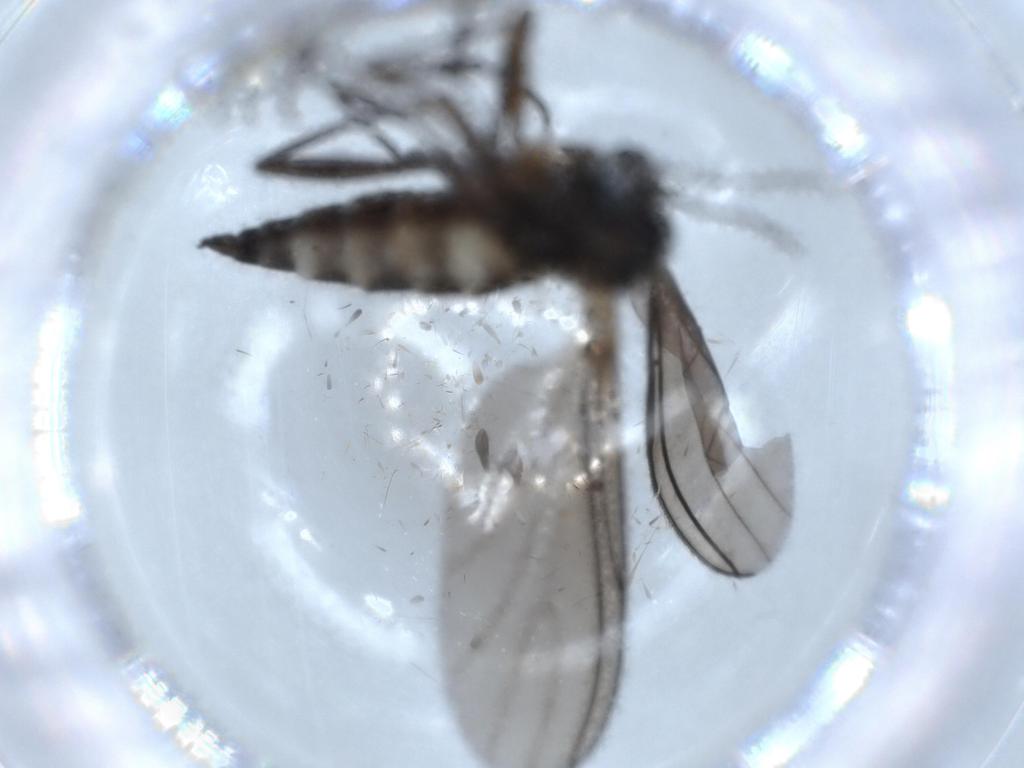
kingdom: Animalia
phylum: Arthropoda
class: Insecta
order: Diptera
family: Sciaridae
